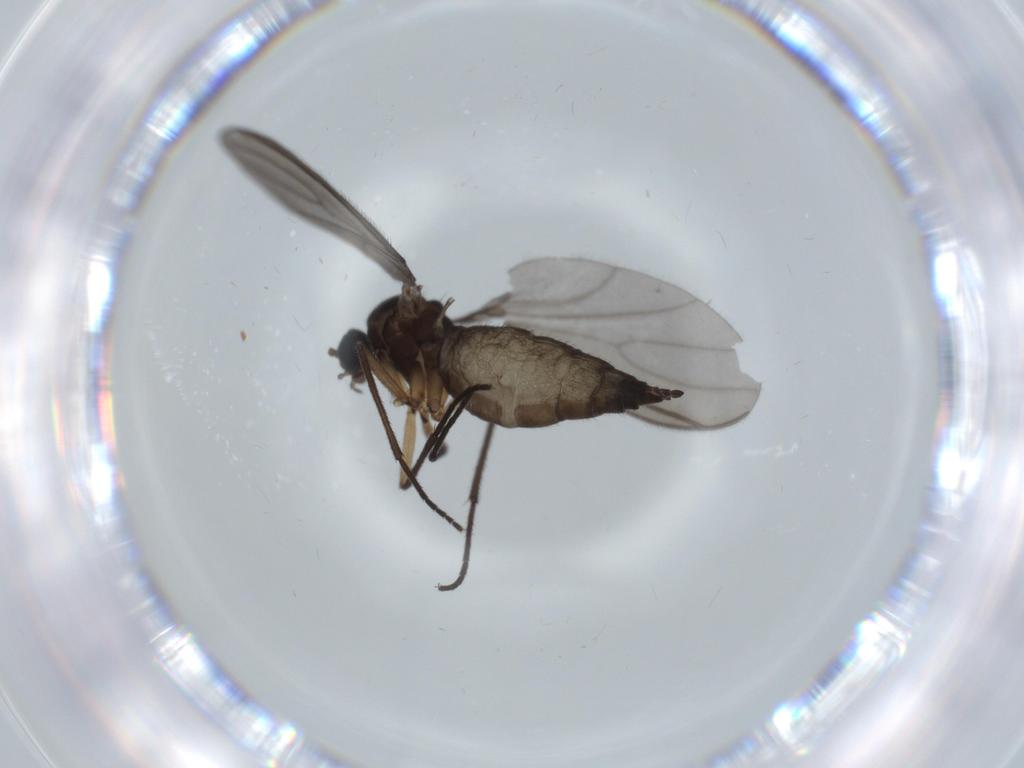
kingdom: Animalia
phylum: Arthropoda
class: Insecta
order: Diptera
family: Sciaridae
